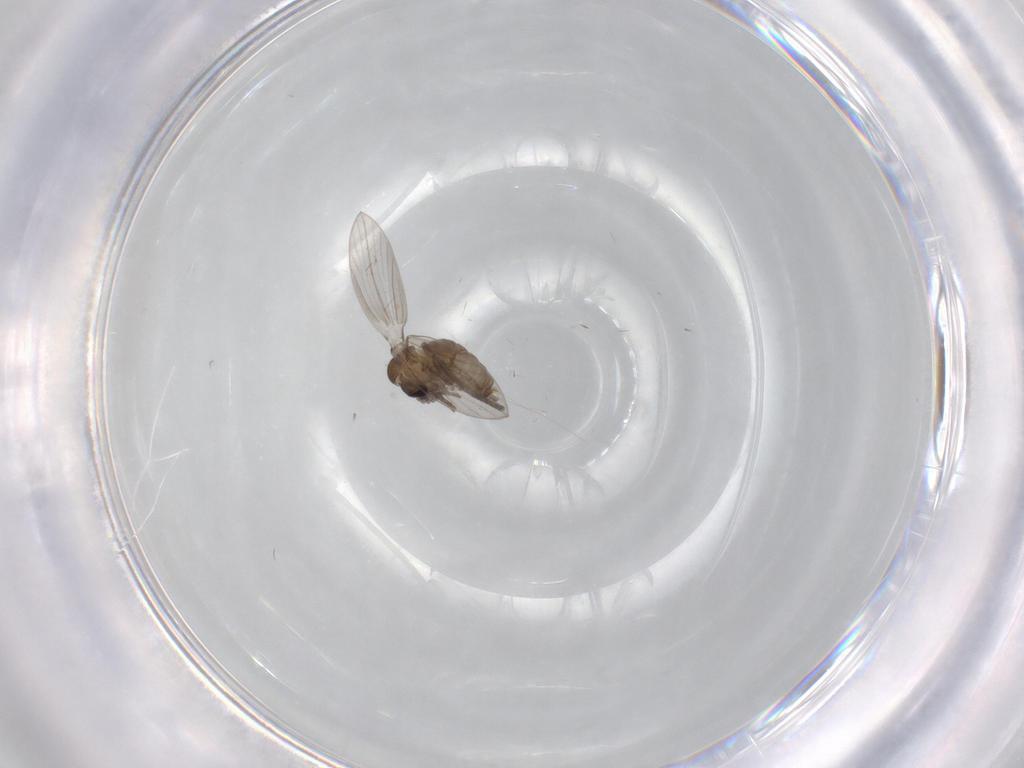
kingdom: Animalia
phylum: Arthropoda
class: Insecta
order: Diptera
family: Psychodidae
